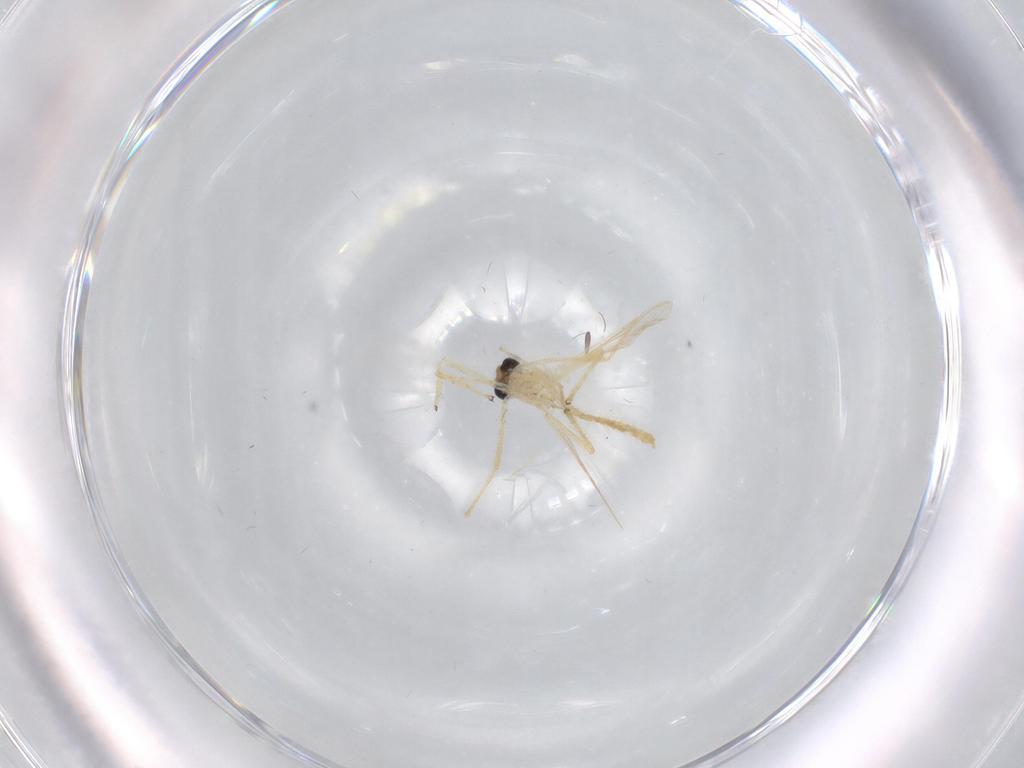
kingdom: Animalia
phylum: Arthropoda
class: Insecta
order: Diptera
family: Chironomidae
